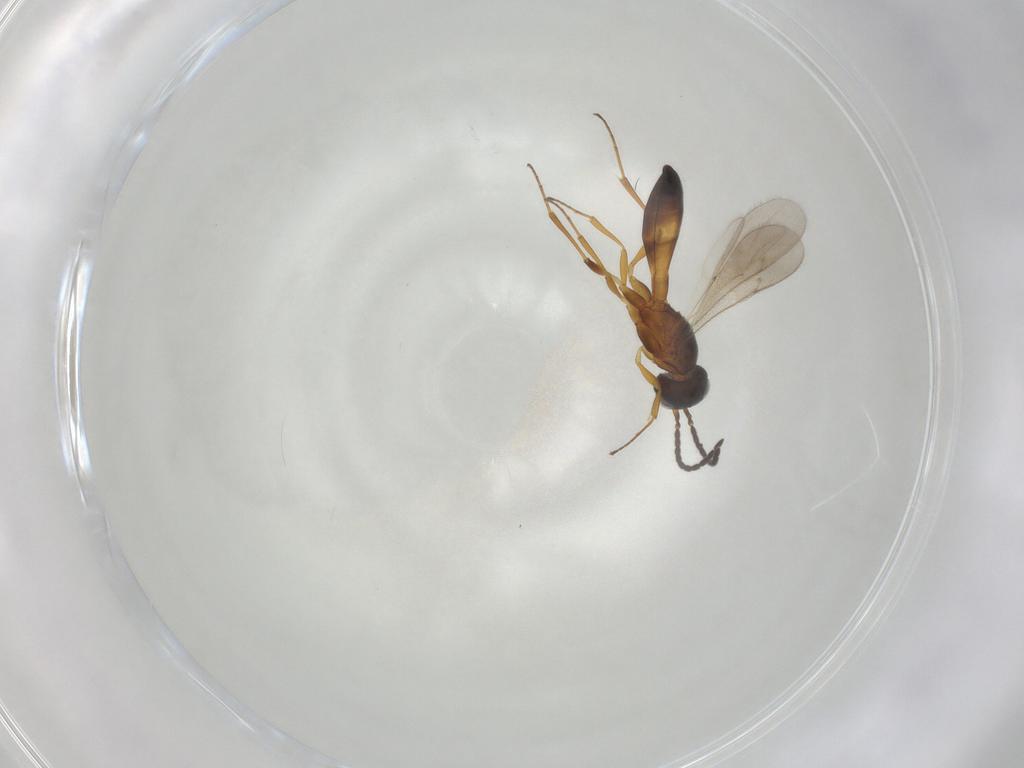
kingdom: Animalia
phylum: Arthropoda
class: Insecta
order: Hymenoptera
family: Scelionidae
